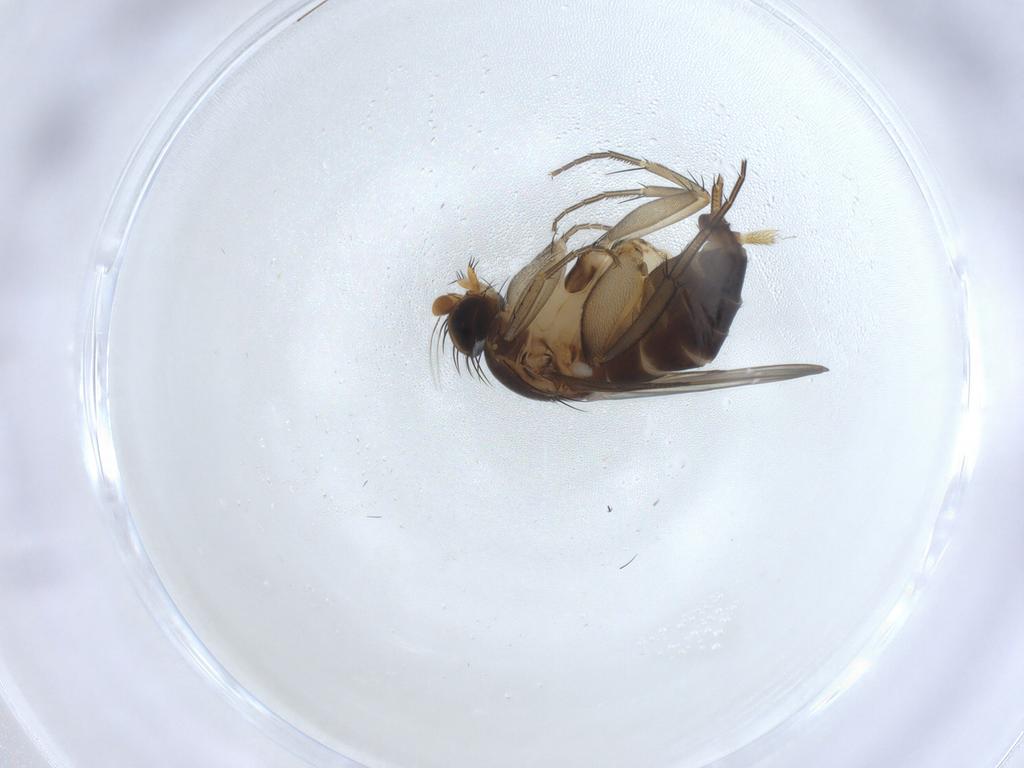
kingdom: Animalia
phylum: Arthropoda
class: Insecta
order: Diptera
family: Phoridae
